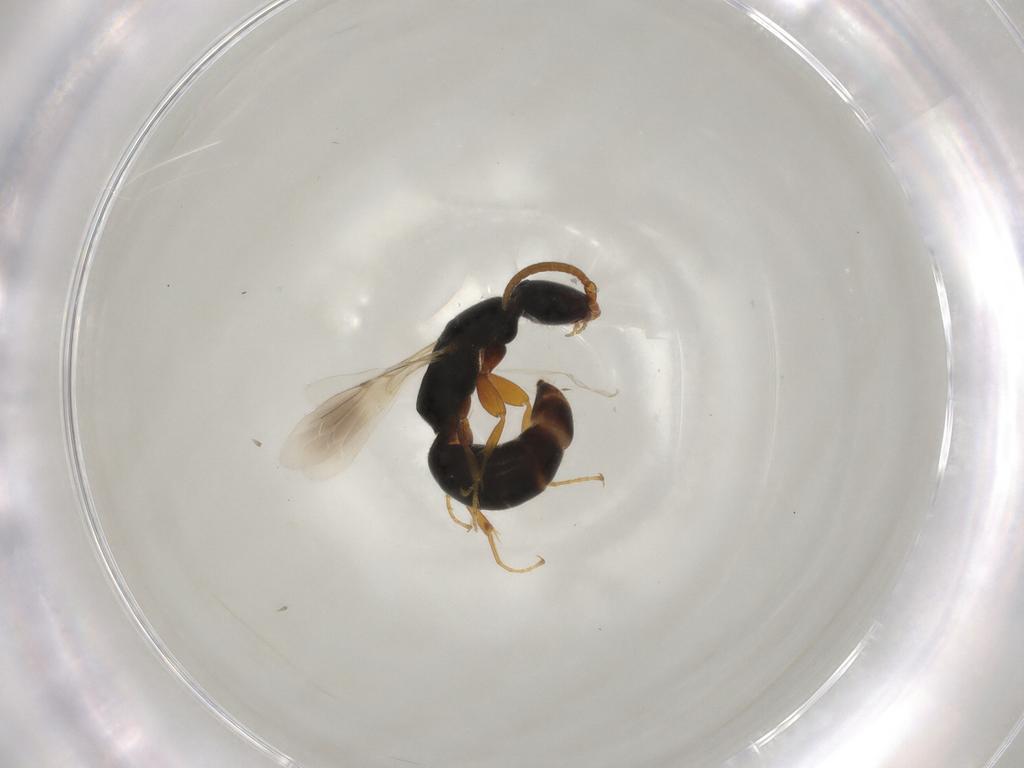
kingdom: Animalia
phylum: Arthropoda
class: Insecta
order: Hymenoptera
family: Bethylidae
